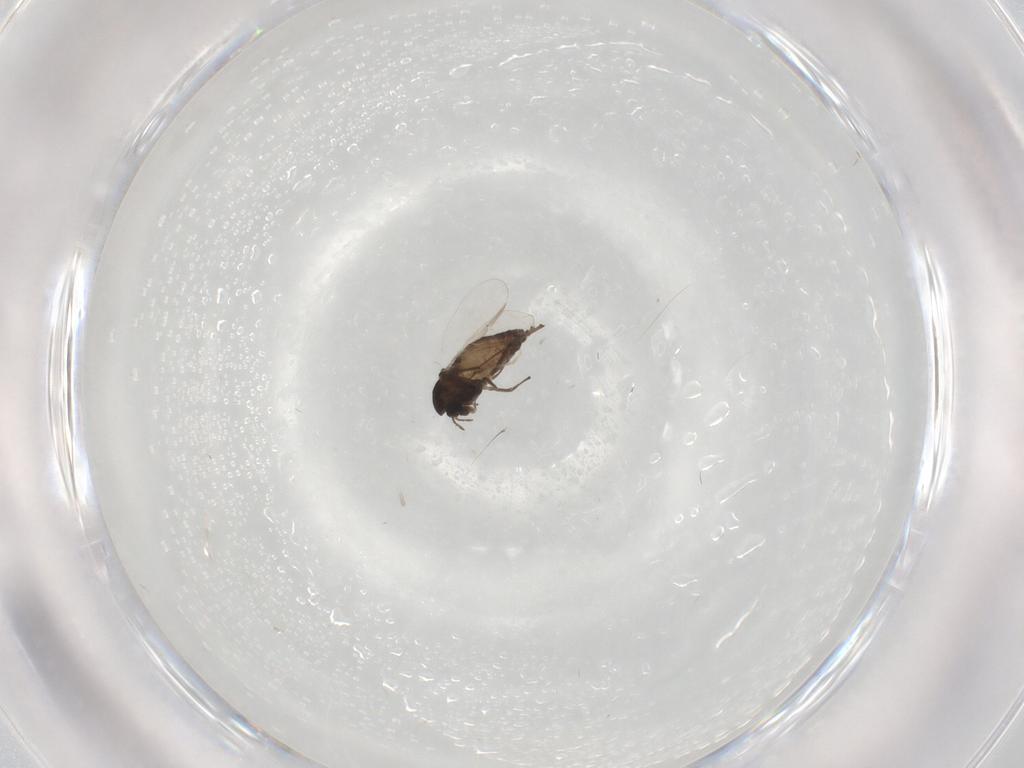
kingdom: Animalia
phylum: Arthropoda
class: Insecta
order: Diptera
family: Chironomidae
